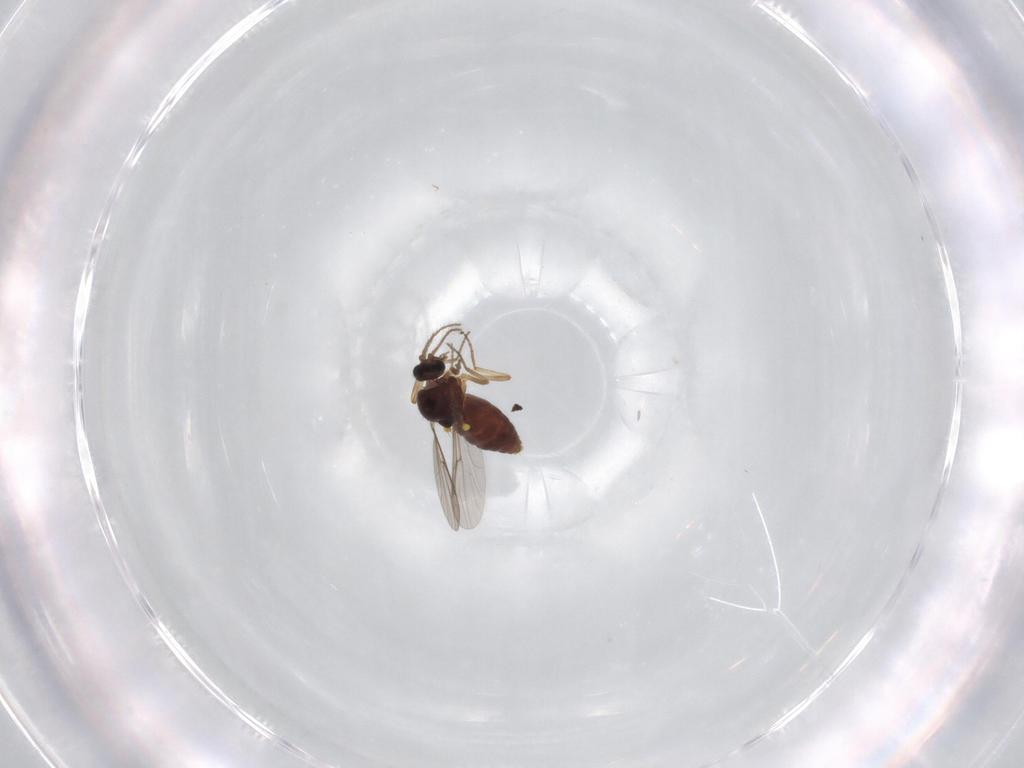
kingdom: Animalia
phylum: Arthropoda
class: Insecta
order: Diptera
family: Ceratopogonidae
